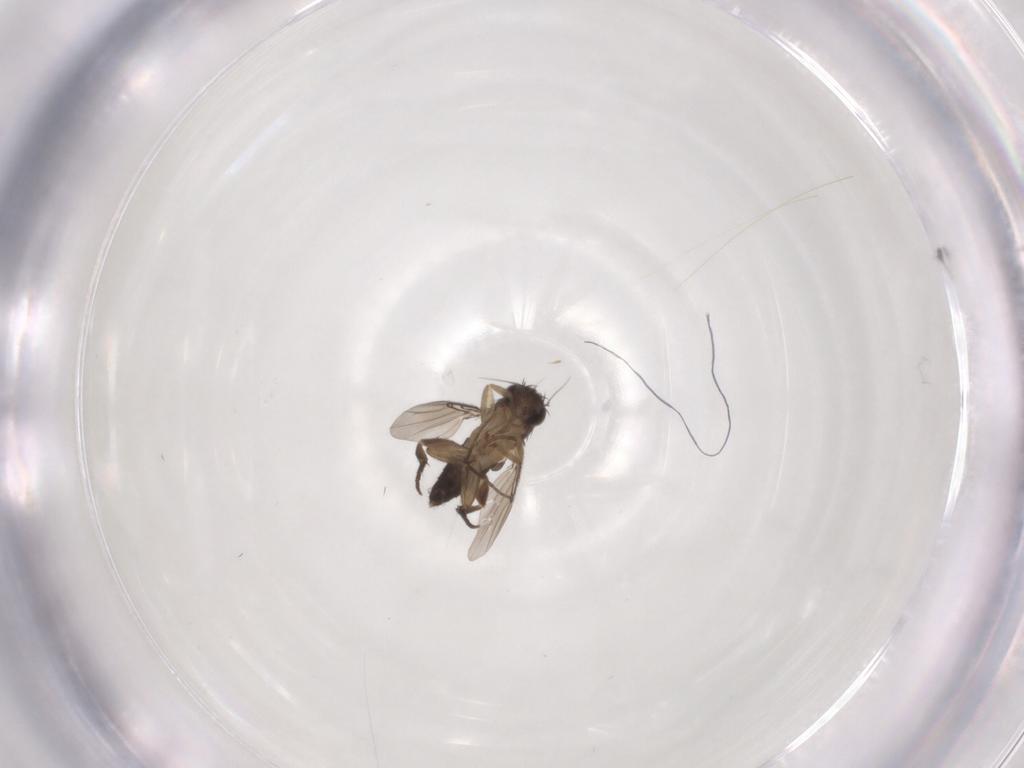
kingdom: Animalia
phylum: Arthropoda
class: Insecta
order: Diptera
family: Phoridae
